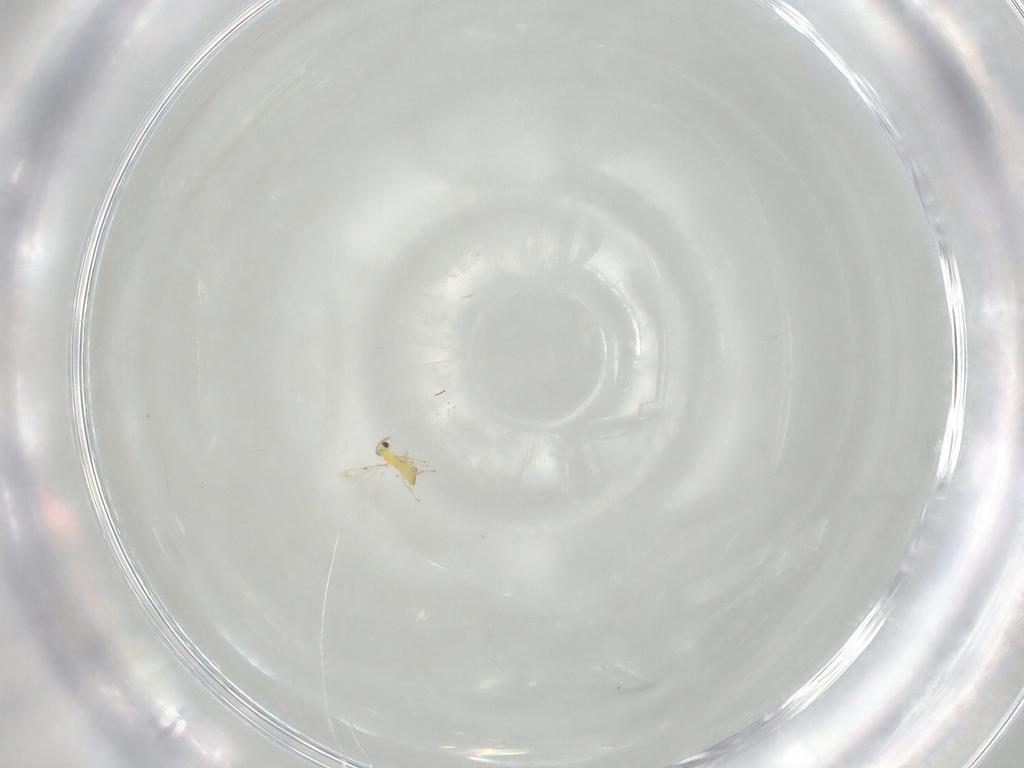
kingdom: Animalia
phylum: Arthropoda
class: Insecta
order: Hymenoptera
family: Trichogrammatidae
